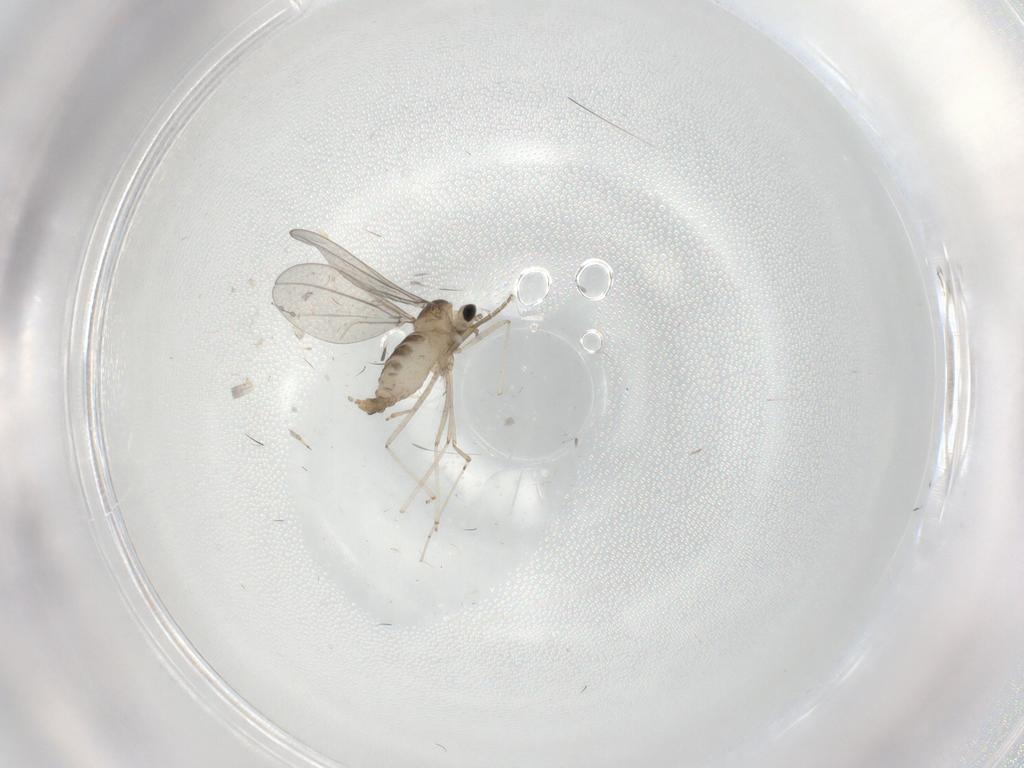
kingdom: Animalia
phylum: Arthropoda
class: Insecta
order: Diptera
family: Cecidomyiidae
